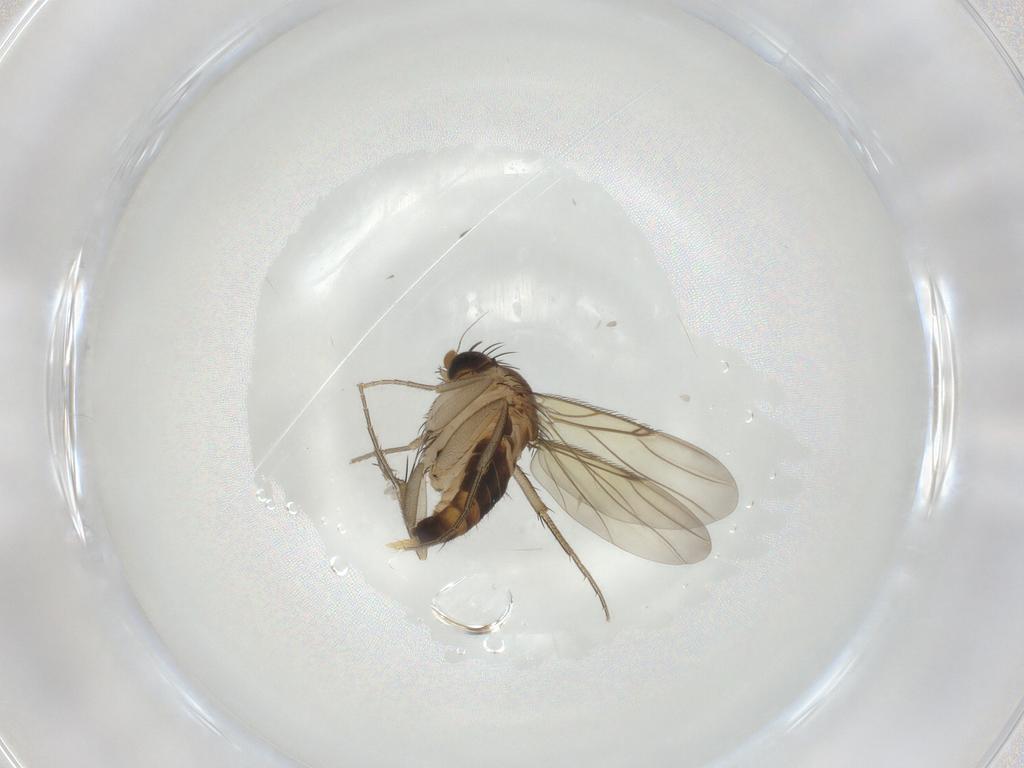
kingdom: Animalia
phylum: Arthropoda
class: Insecta
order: Diptera
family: Phoridae
